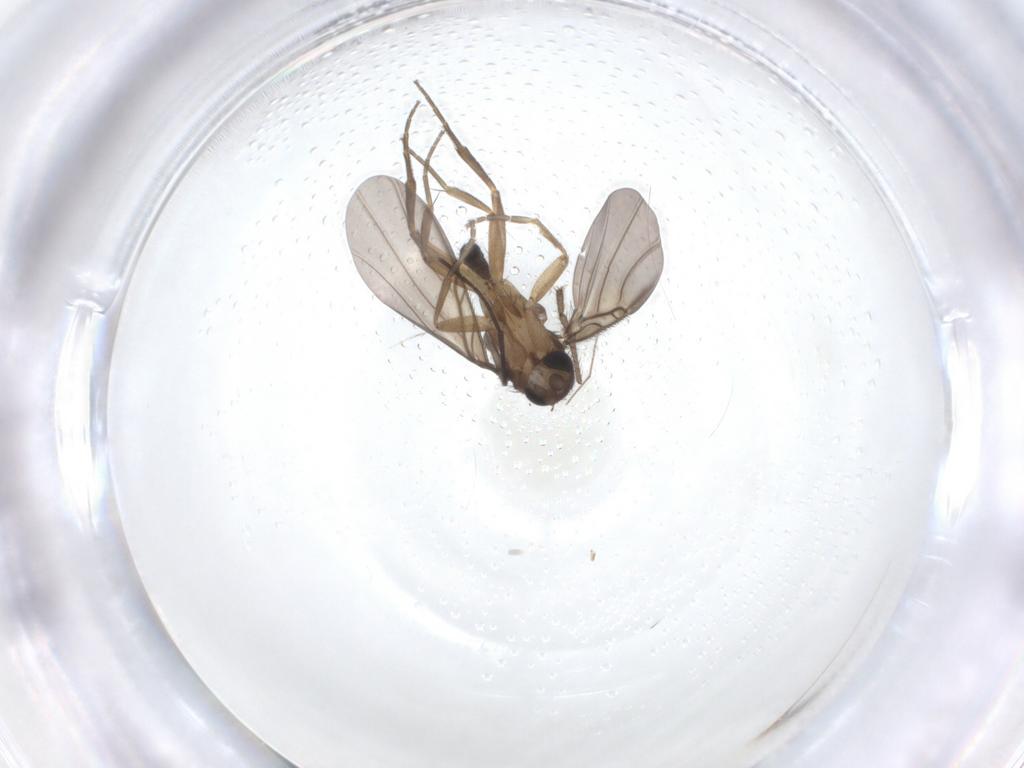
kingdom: Animalia
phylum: Arthropoda
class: Insecta
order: Diptera
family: Phoridae
